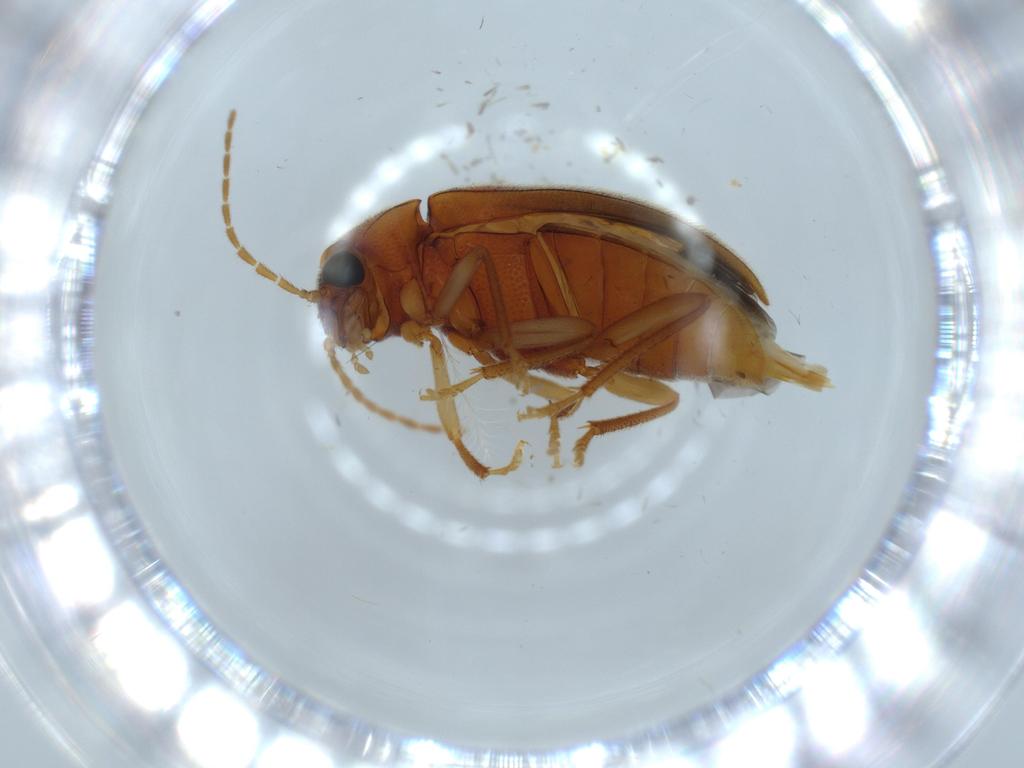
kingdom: Animalia
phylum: Arthropoda
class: Insecta
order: Coleoptera
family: Ptilodactylidae
